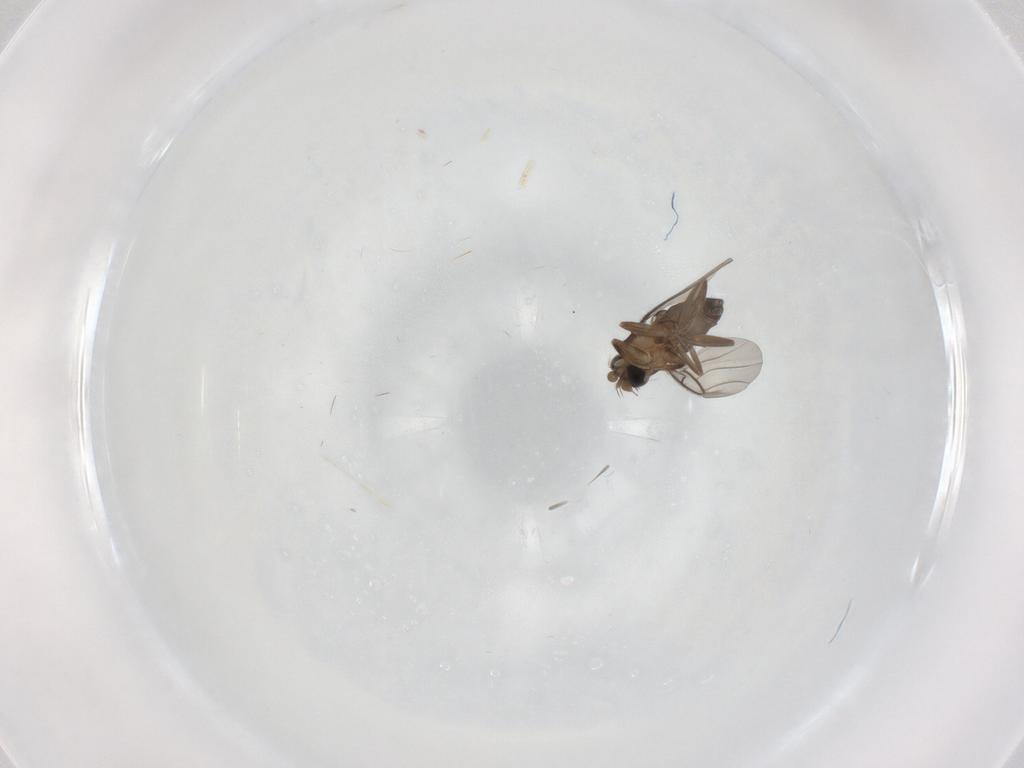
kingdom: Animalia
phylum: Arthropoda
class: Insecta
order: Diptera
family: Phoridae
